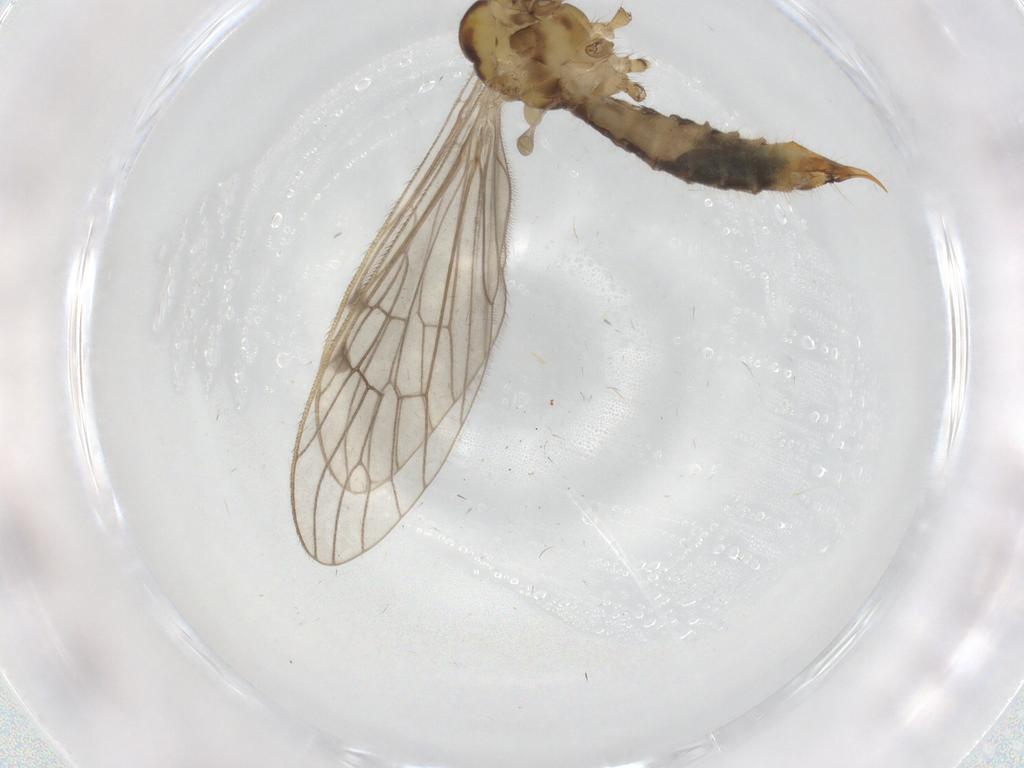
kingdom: Animalia
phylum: Arthropoda
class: Insecta
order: Diptera
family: Limoniidae
